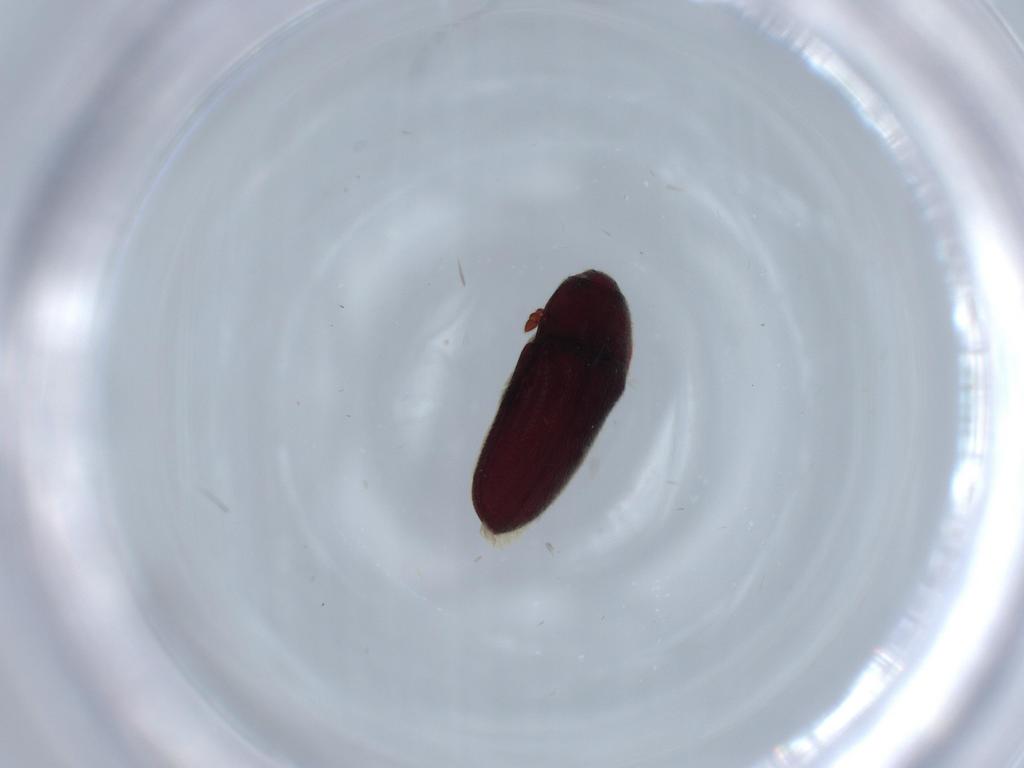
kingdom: Animalia
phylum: Arthropoda
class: Insecta
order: Coleoptera
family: Throscidae
